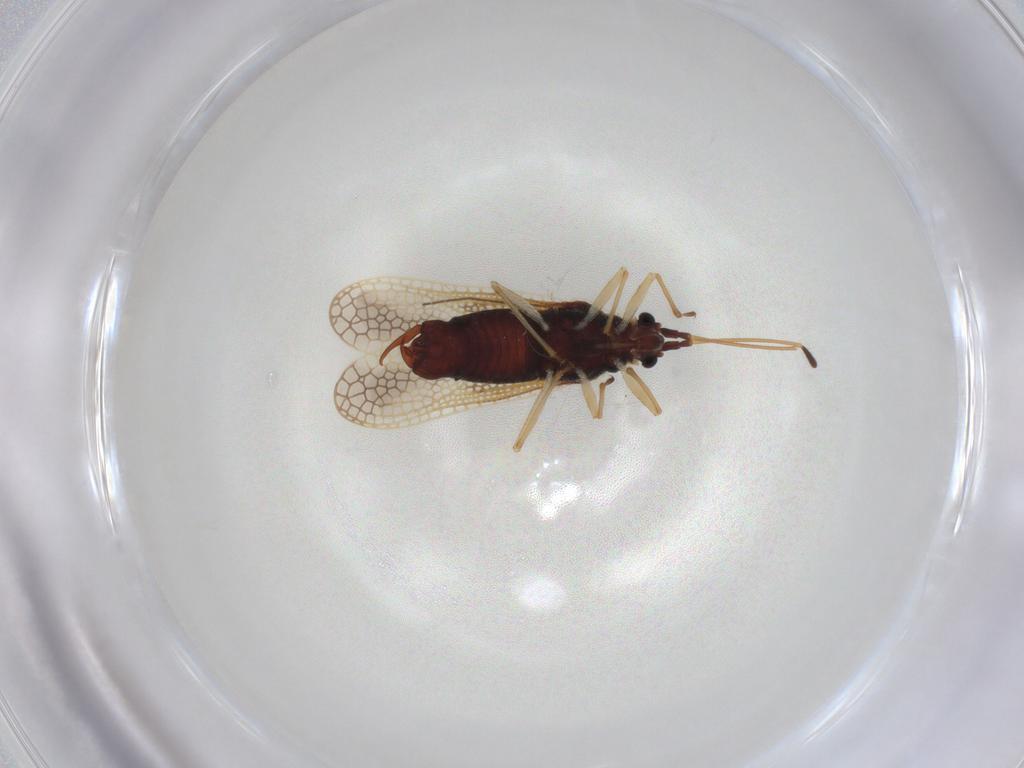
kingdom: Animalia
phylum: Arthropoda
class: Insecta
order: Hemiptera
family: Tingidae
